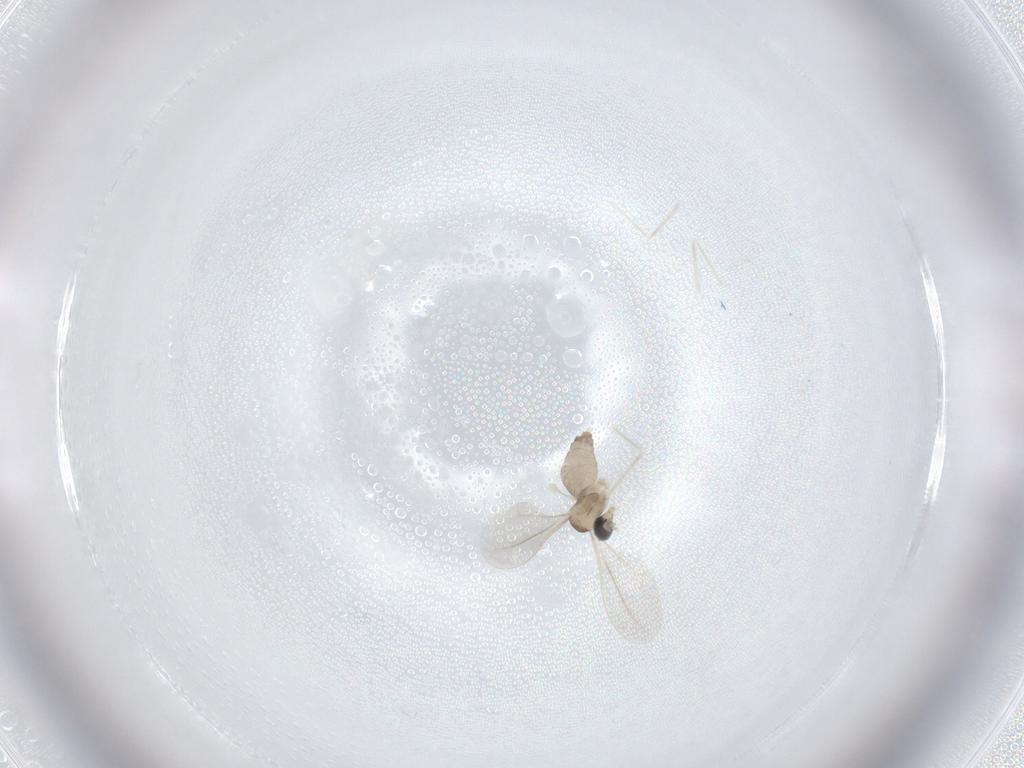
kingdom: Animalia
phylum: Arthropoda
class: Insecta
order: Diptera
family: Cecidomyiidae
